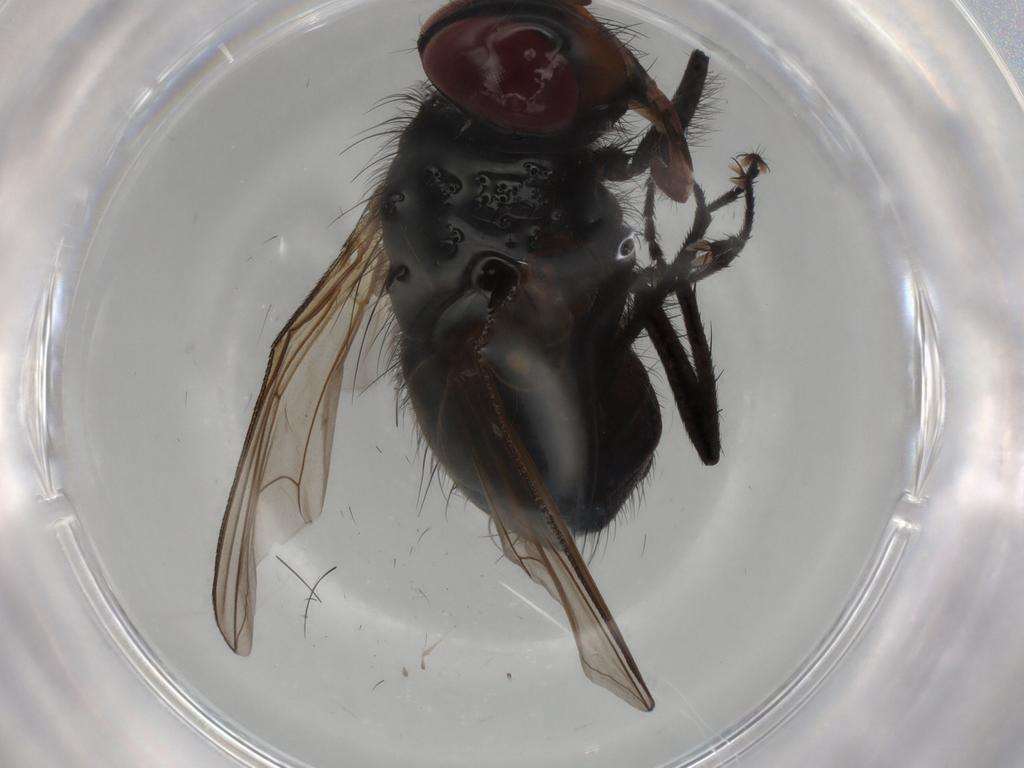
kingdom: Animalia
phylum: Arthropoda
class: Insecta
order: Diptera
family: Tachinidae
